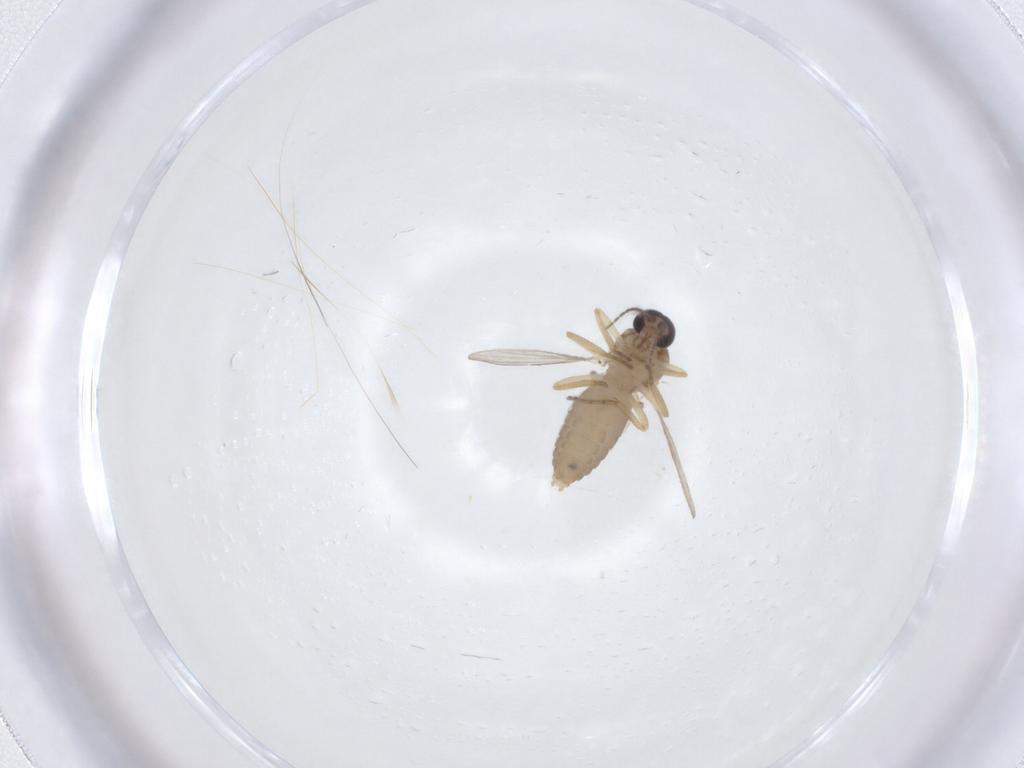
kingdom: Animalia
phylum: Arthropoda
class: Insecta
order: Diptera
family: Ceratopogonidae
